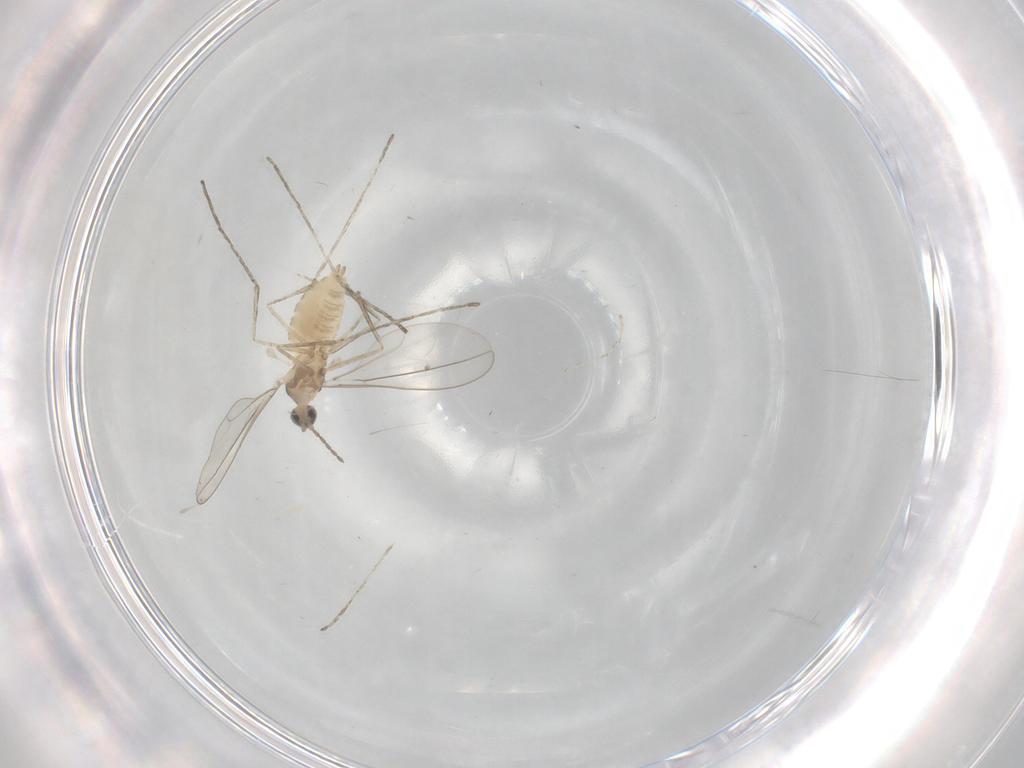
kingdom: Animalia
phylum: Arthropoda
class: Insecta
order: Diptera
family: Cecidomyiidae
